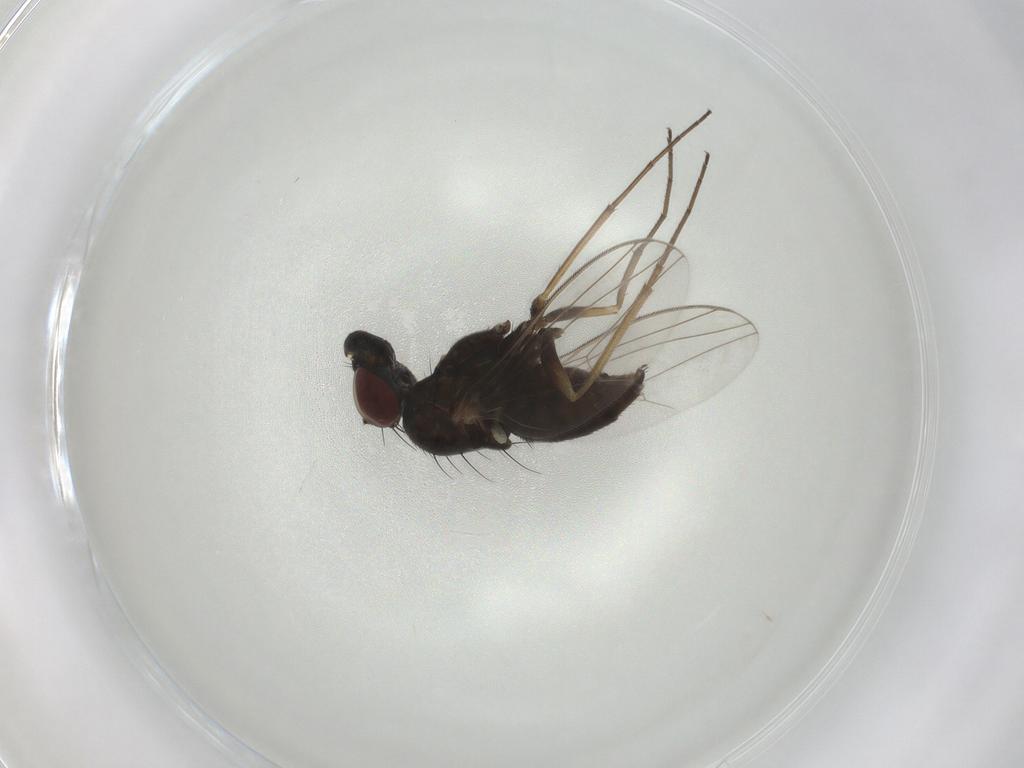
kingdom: Animalia
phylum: Arthropoda
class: Insecta
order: Diptera
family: Dolichopodidae
